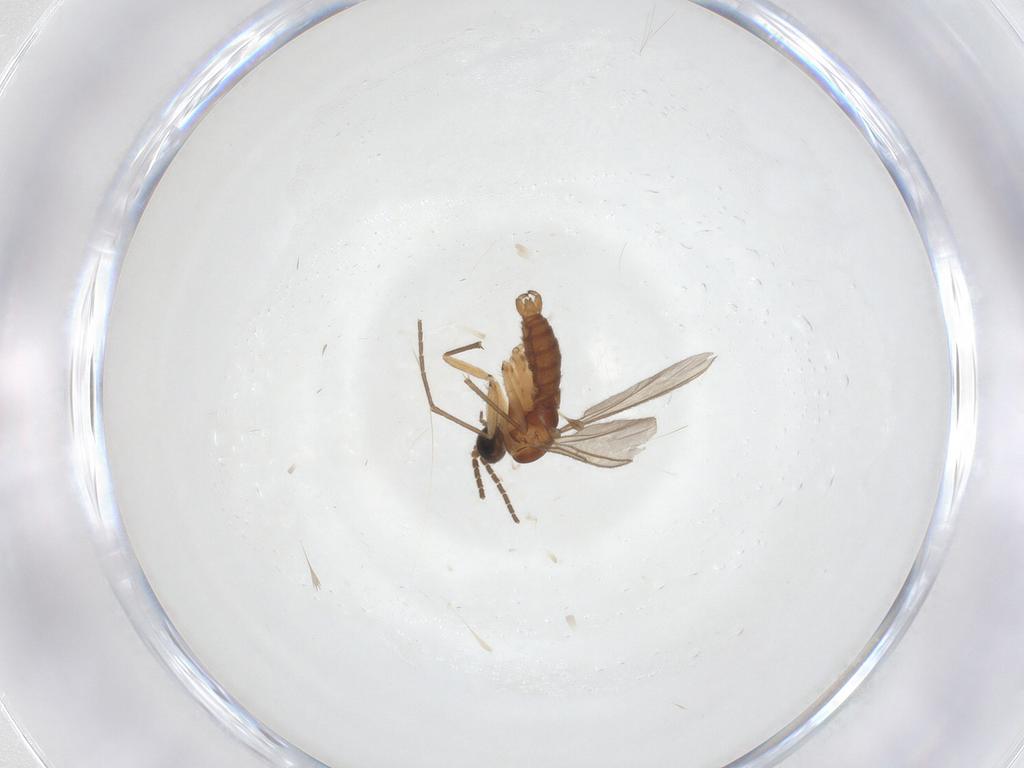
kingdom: Animalia
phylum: Arthropoda
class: Insecta
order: Diptera
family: Sciaridae
